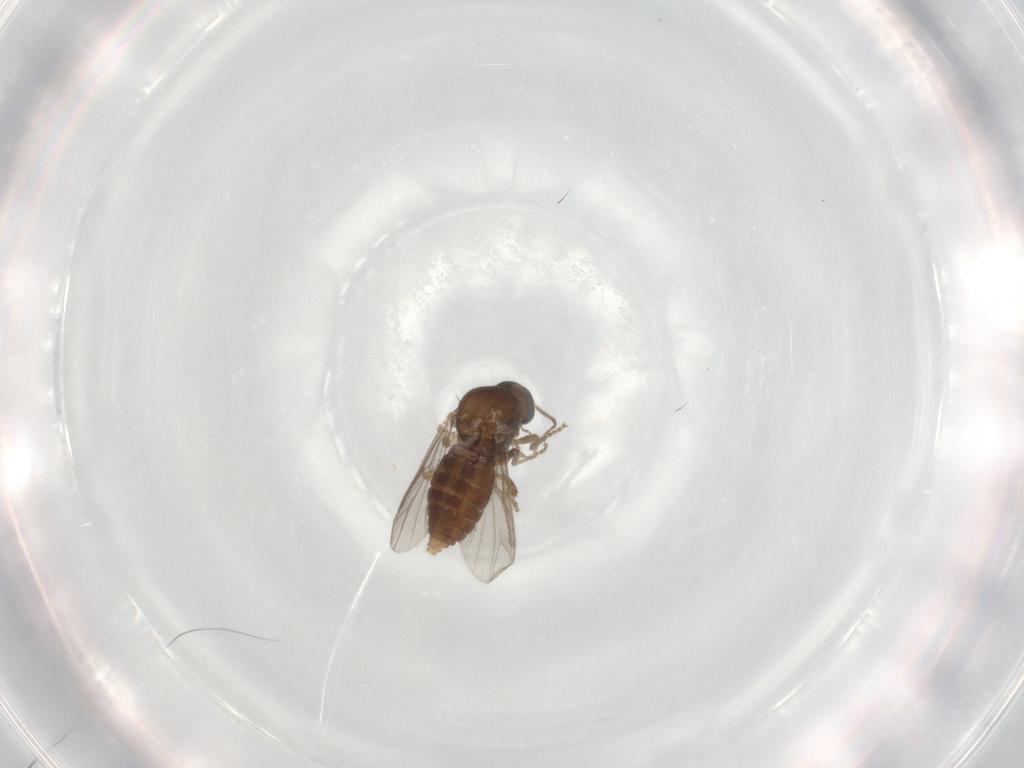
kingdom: Animalia
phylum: Arthropoda
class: Insecta
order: Diptera
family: Ceratopogonidae
